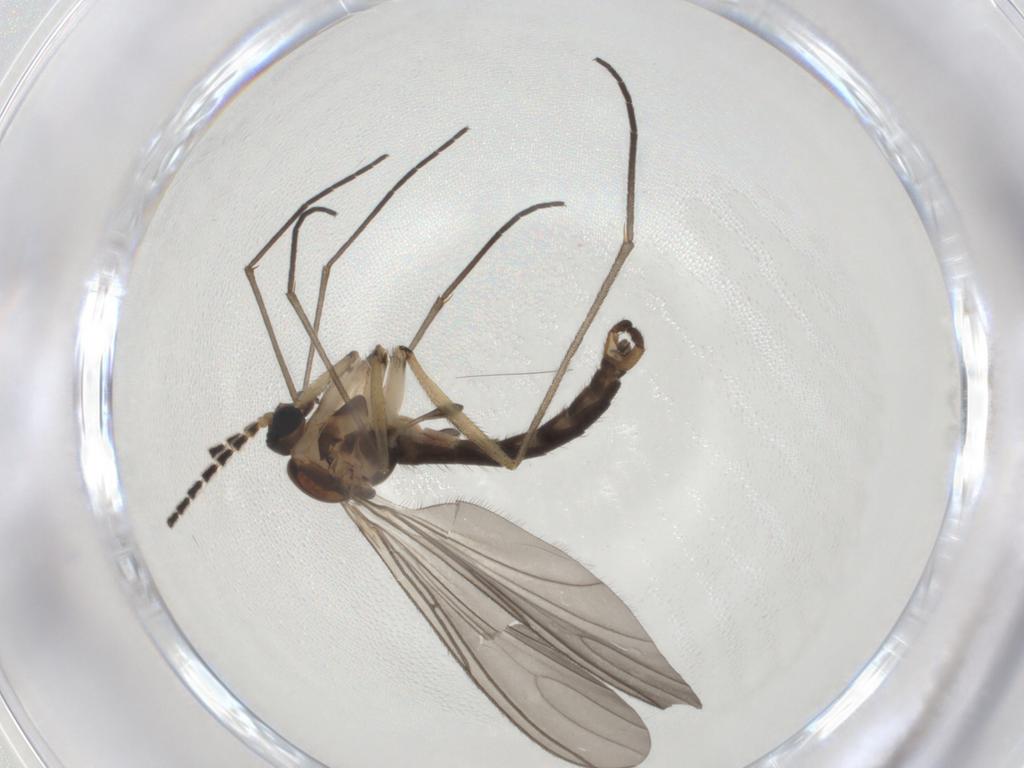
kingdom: Animalia
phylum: Arthropoda
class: Insecta
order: Diptera
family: Sciaridae
